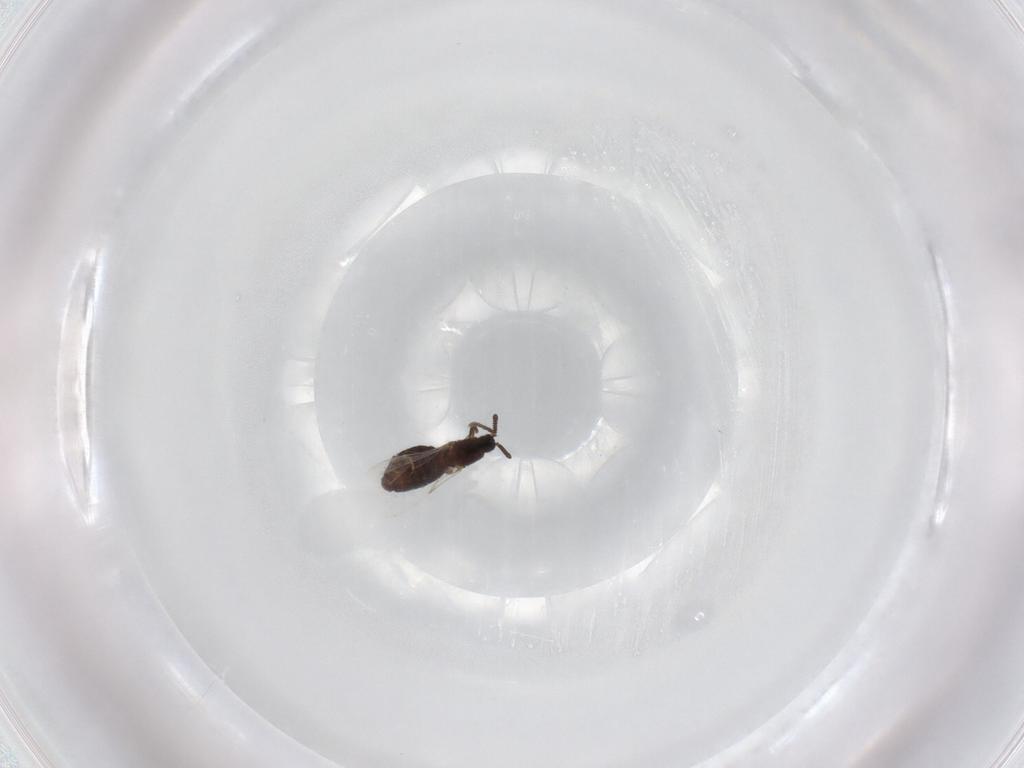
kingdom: Animalia
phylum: Arthropoda
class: Insecta
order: Diptera
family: Scatopsidae
